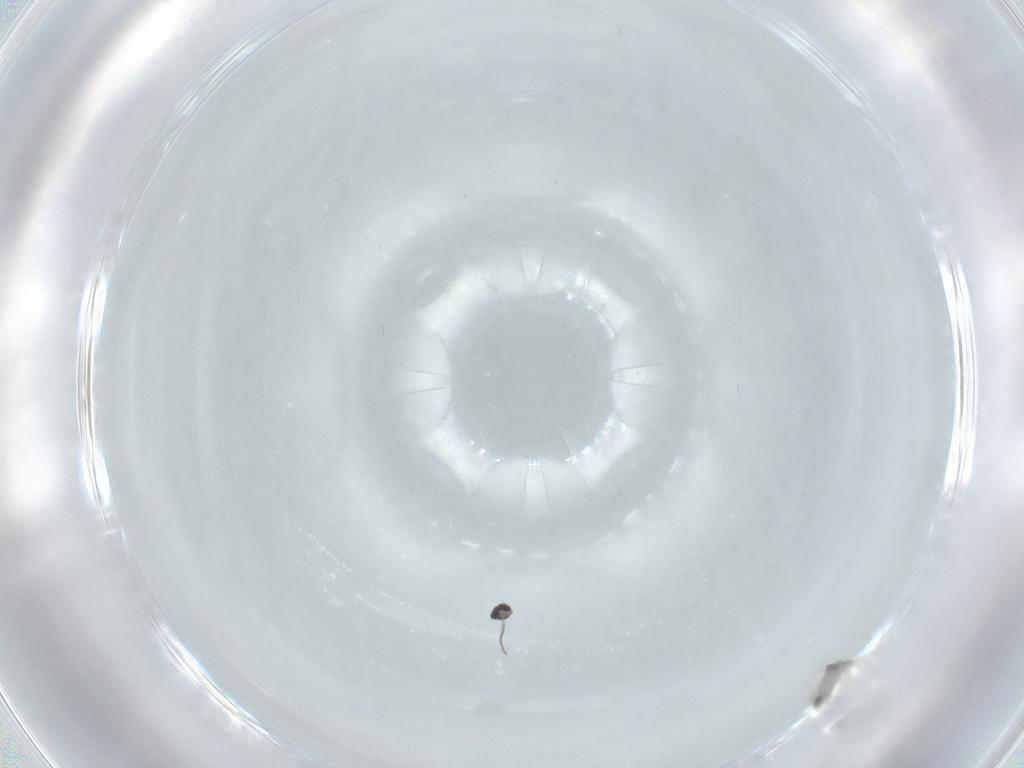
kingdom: Animalia
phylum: Arthropoda
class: Insecta
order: Diptera
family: Cecidomyiidae
